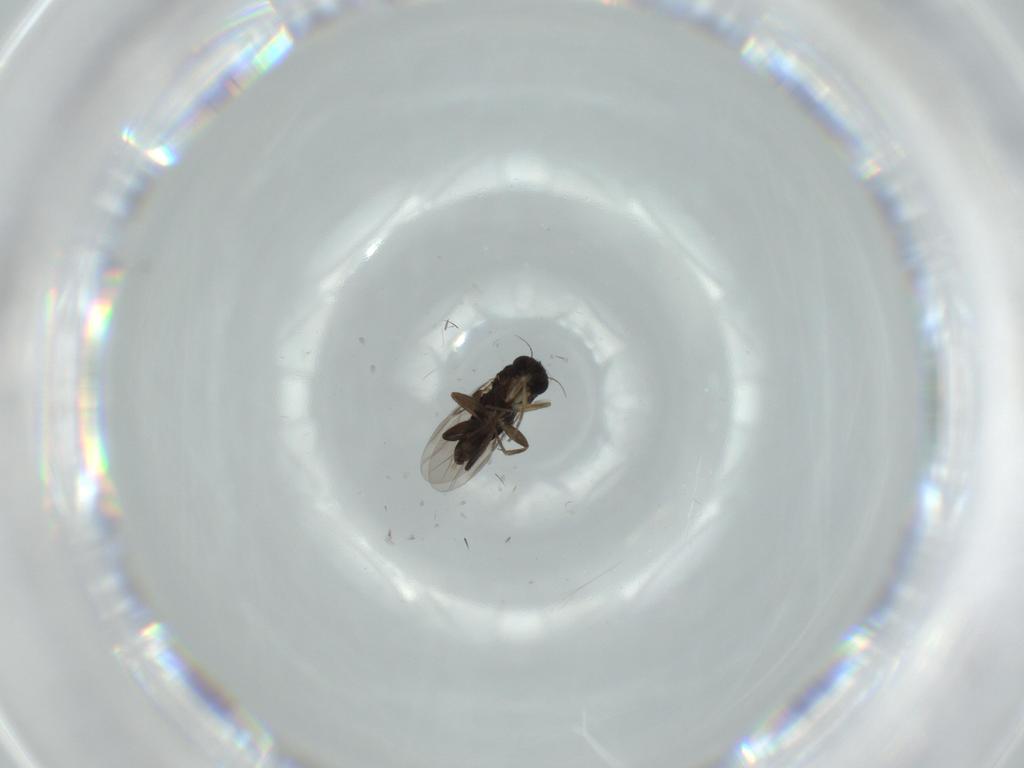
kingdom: Animalia
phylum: Arthropoda
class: Insecta
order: Diptera
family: Phoridae
